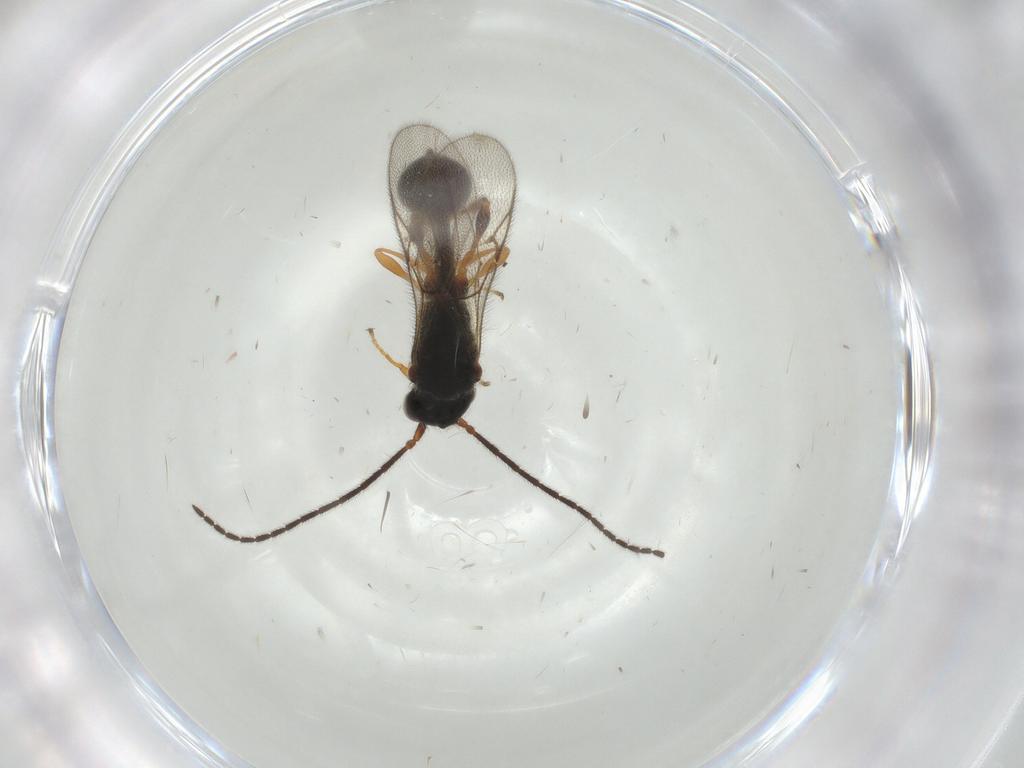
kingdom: Animalia
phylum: Arthropoda
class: Insecta
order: Hymenoptera
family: Diapriidae
